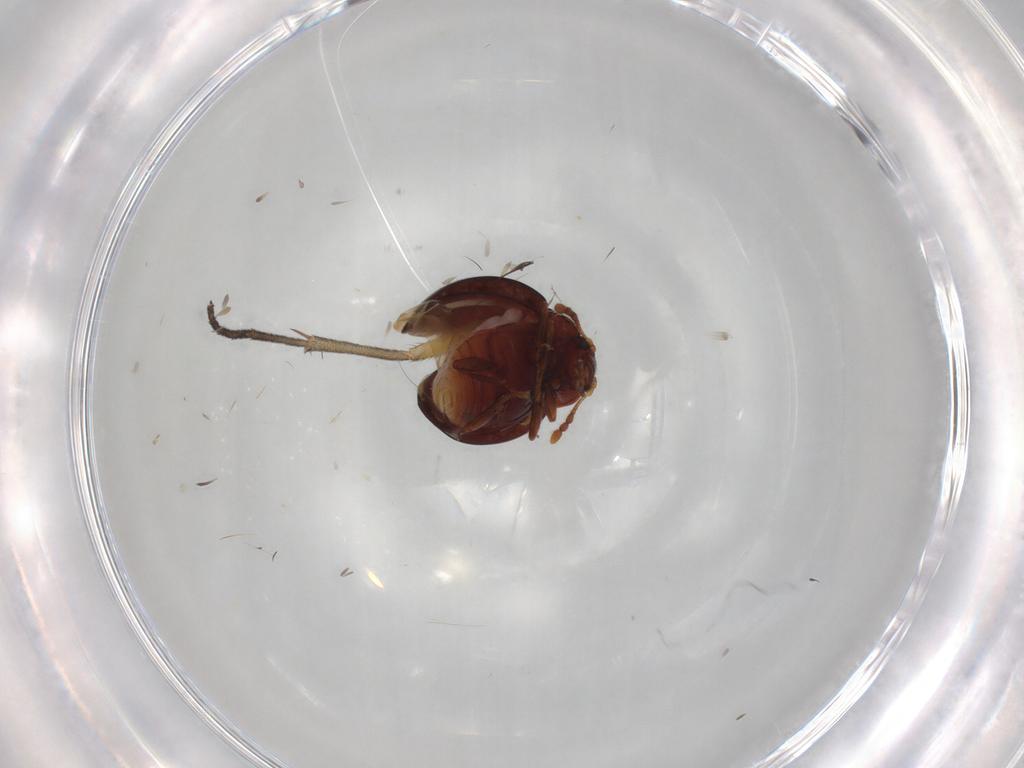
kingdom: Animalia
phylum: Arthropoda
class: Insecta
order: Coleoptera
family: Anamorphidae
